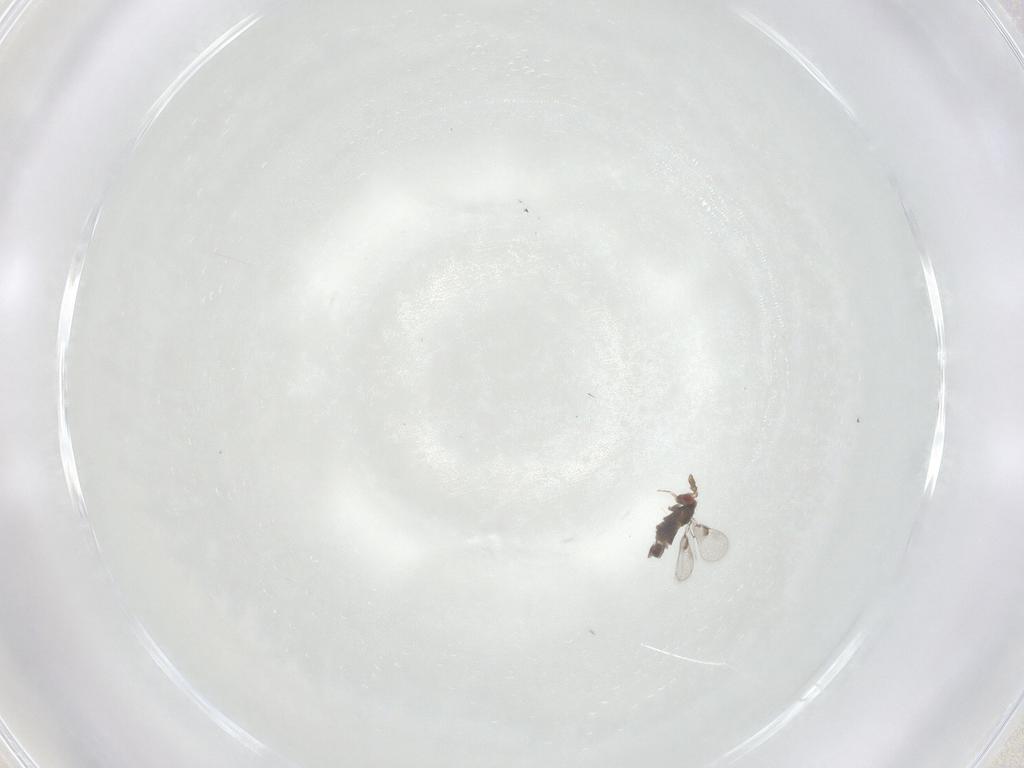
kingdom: Animalia
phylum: Arthropoda
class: Insecta
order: Hymenoptera
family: Trichogrammatidae
